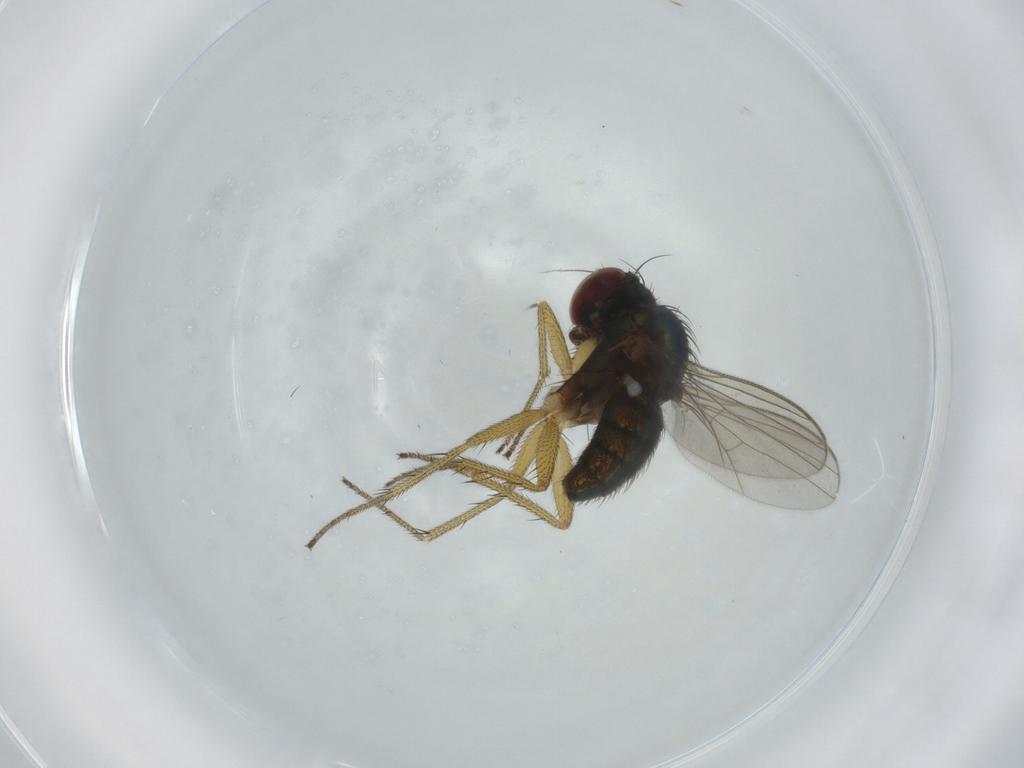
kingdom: Animalia
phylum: Arthropoda
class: Insecta
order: Diptera
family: Dolichopodidae
